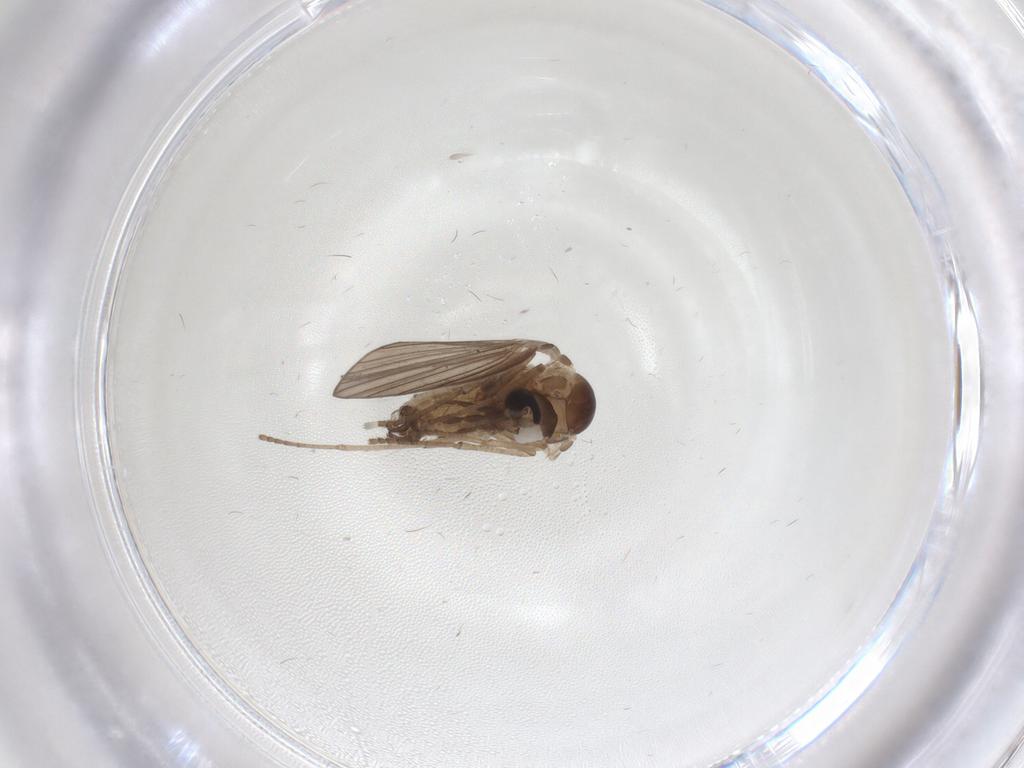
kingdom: Animalia
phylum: Arthropoda
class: Insecta
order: Diptera
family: Psychodidae
